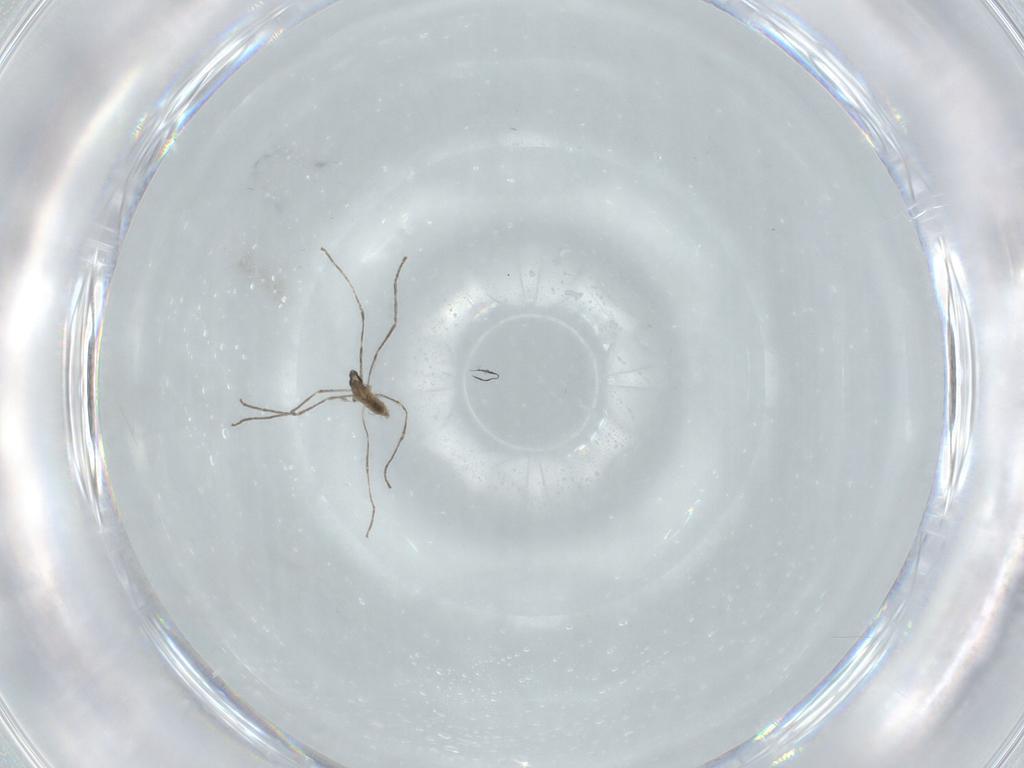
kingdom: Animalia
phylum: Arthropoda
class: Insecta
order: Diptera
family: Cecidomyiidae
